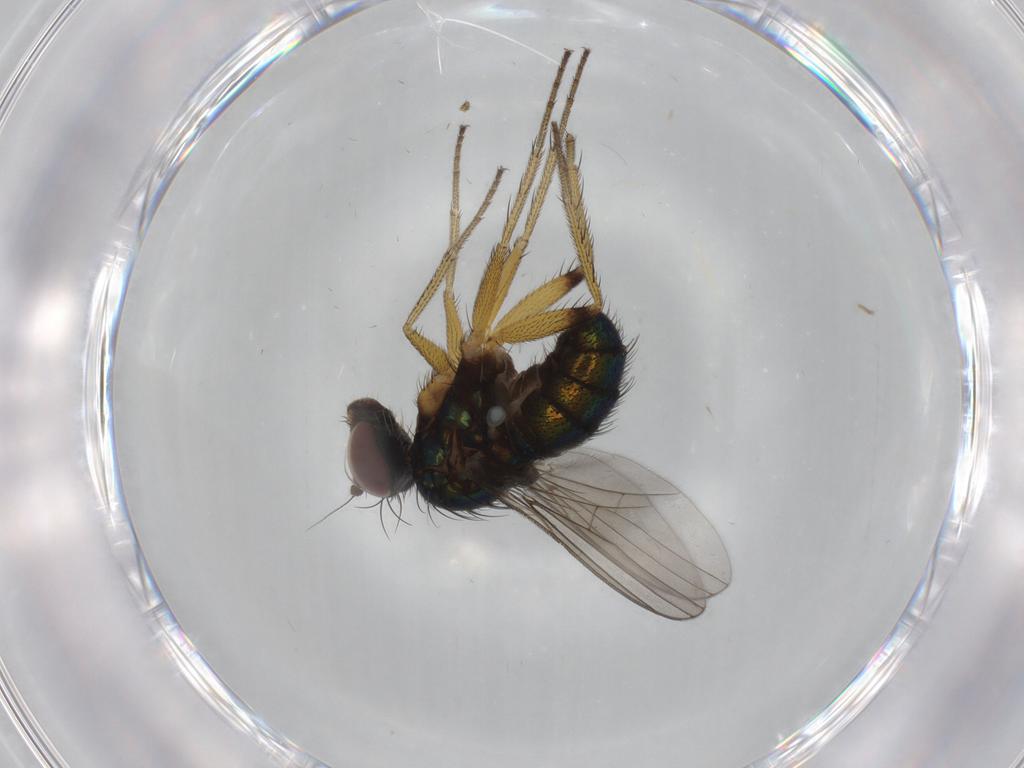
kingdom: Animalia
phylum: Arthropoda
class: Insecta
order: Diptera
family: Dolichopodidae
